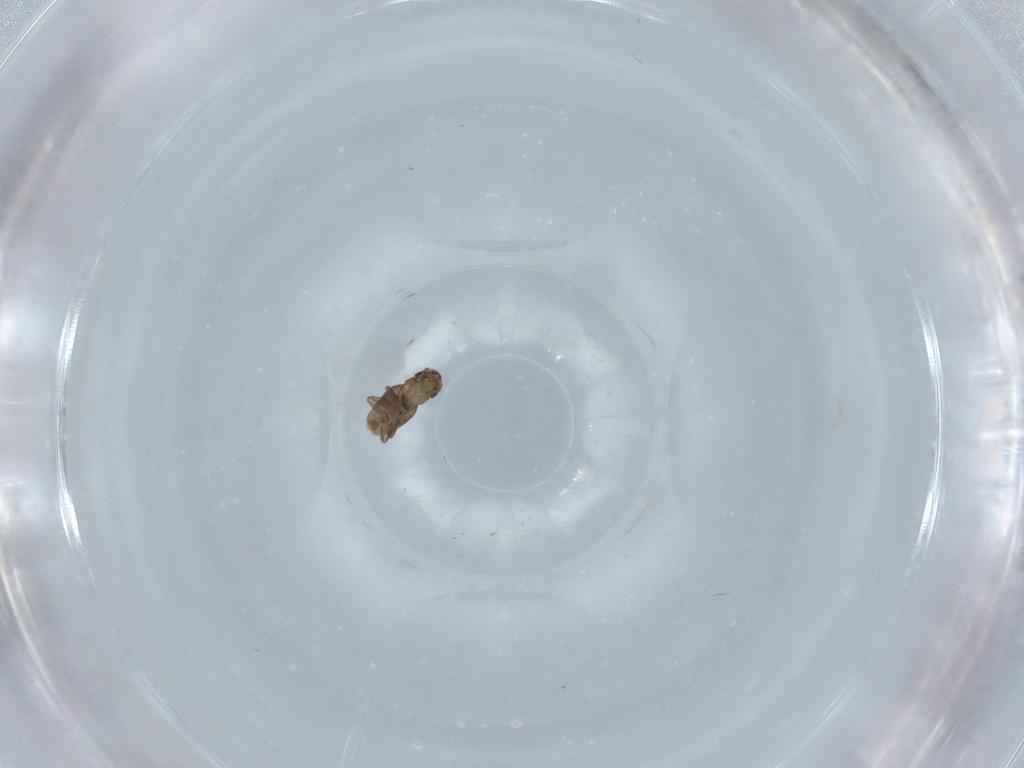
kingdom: Animalia
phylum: Arthropoda
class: Insecta
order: Diptera
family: Sciaridae
